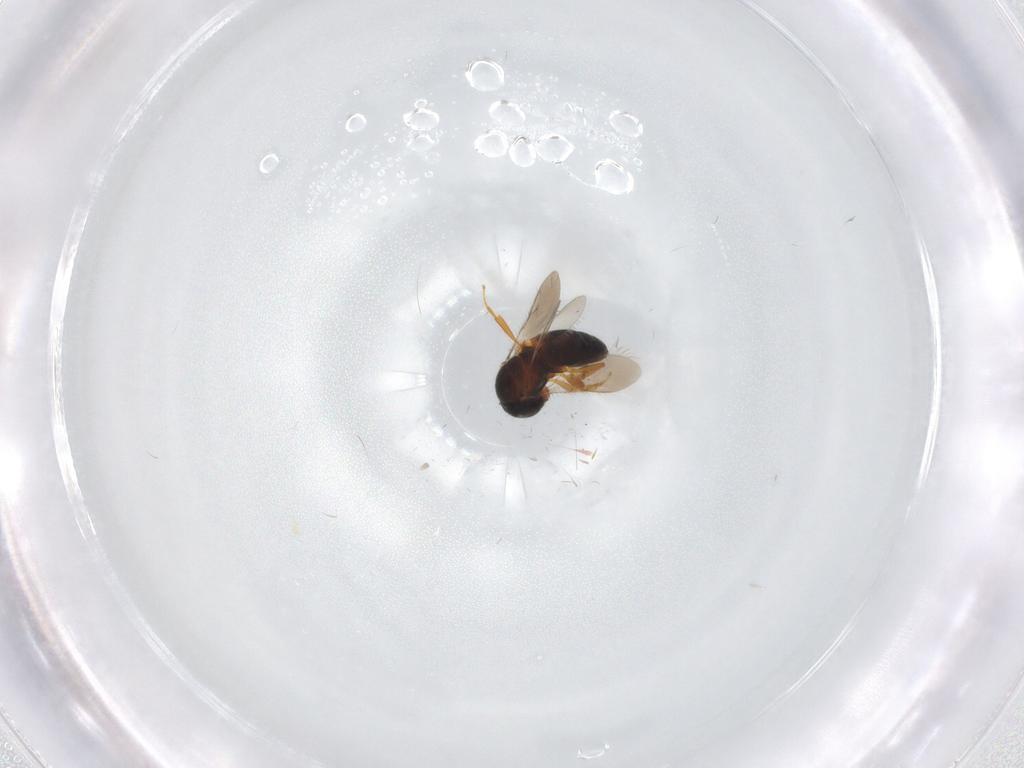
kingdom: Animalia
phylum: Arthropoda
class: Insecta
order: Hymenoptera
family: Scelionidae
